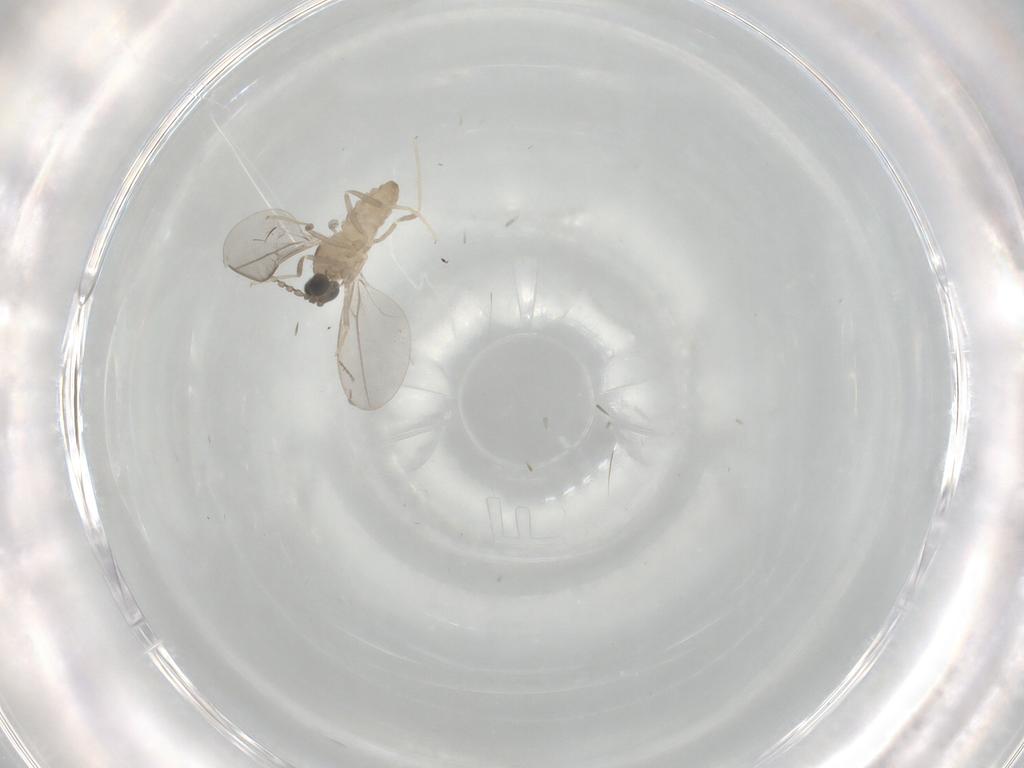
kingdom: Animalia
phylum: Arthropoda
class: Insecta
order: Diptera
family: Cecidomyiidae
